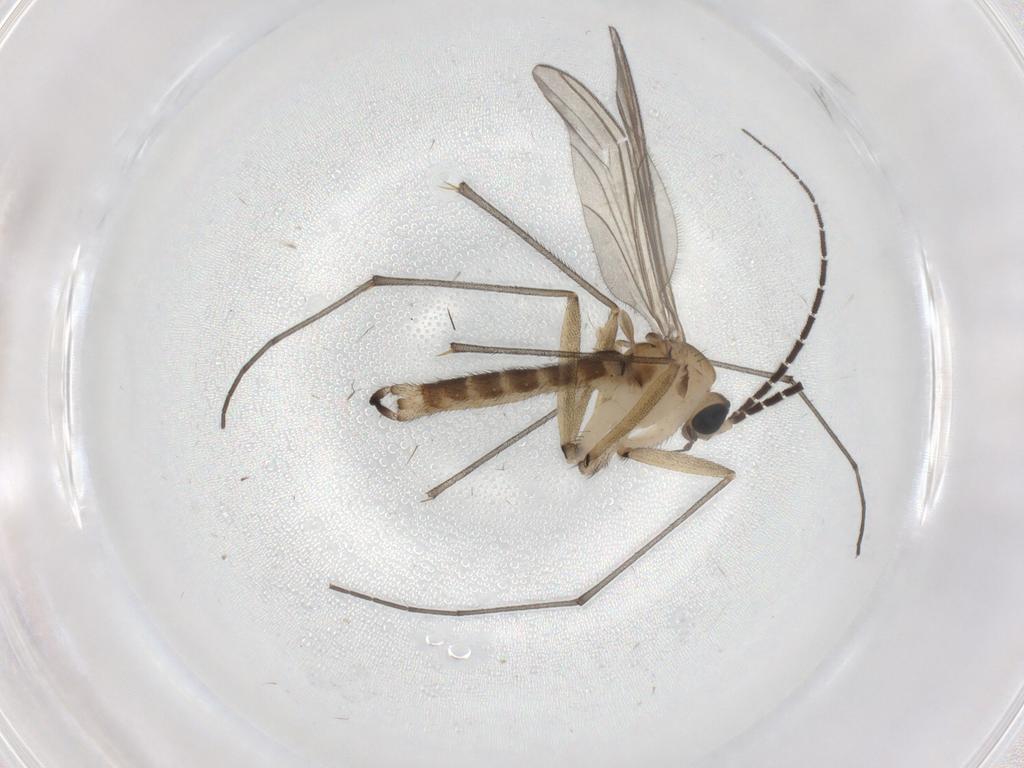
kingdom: Animalia
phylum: Arthropoda
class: Insecta
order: Diptera
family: Sciaridae
